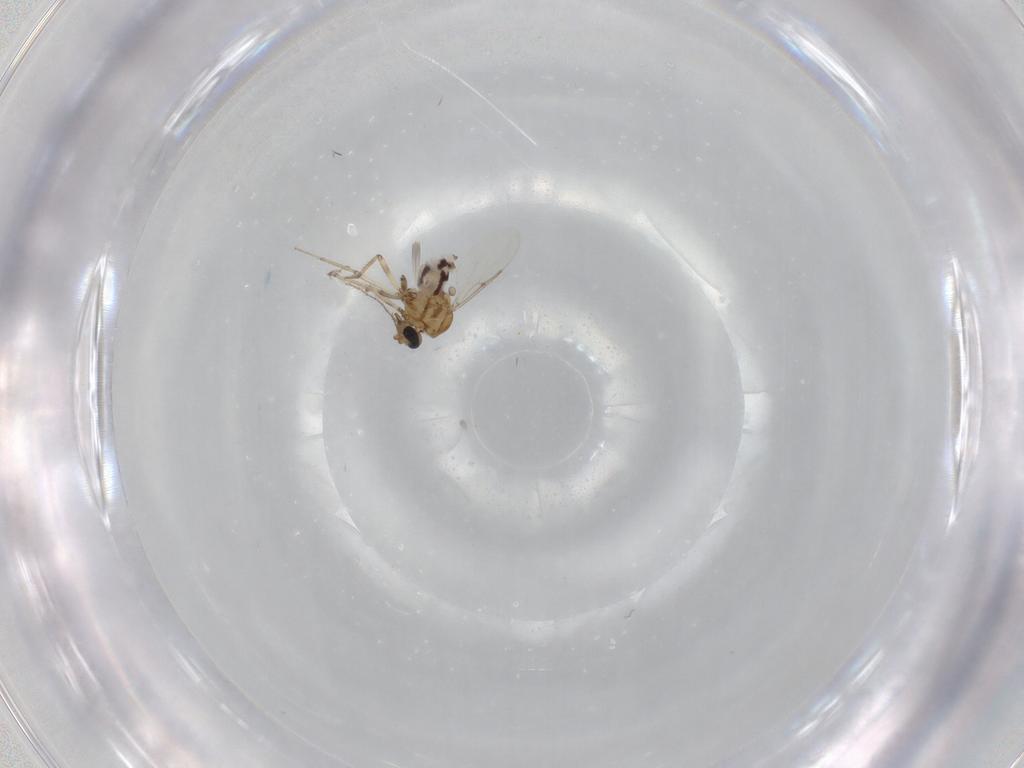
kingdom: Animalia
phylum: Arthropoda
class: Insecta
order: Diptera
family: Ceratopogonidae
